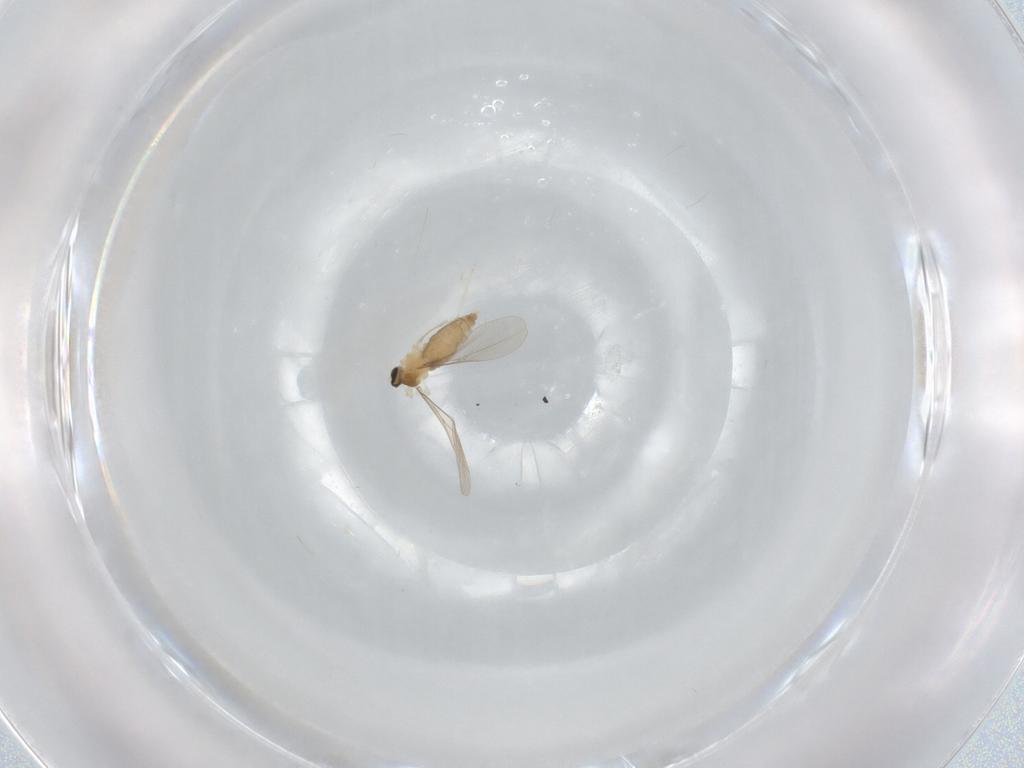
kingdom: Animalia
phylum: Arthropoda
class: Insecta
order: Diptera
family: Cecidomyiidae
